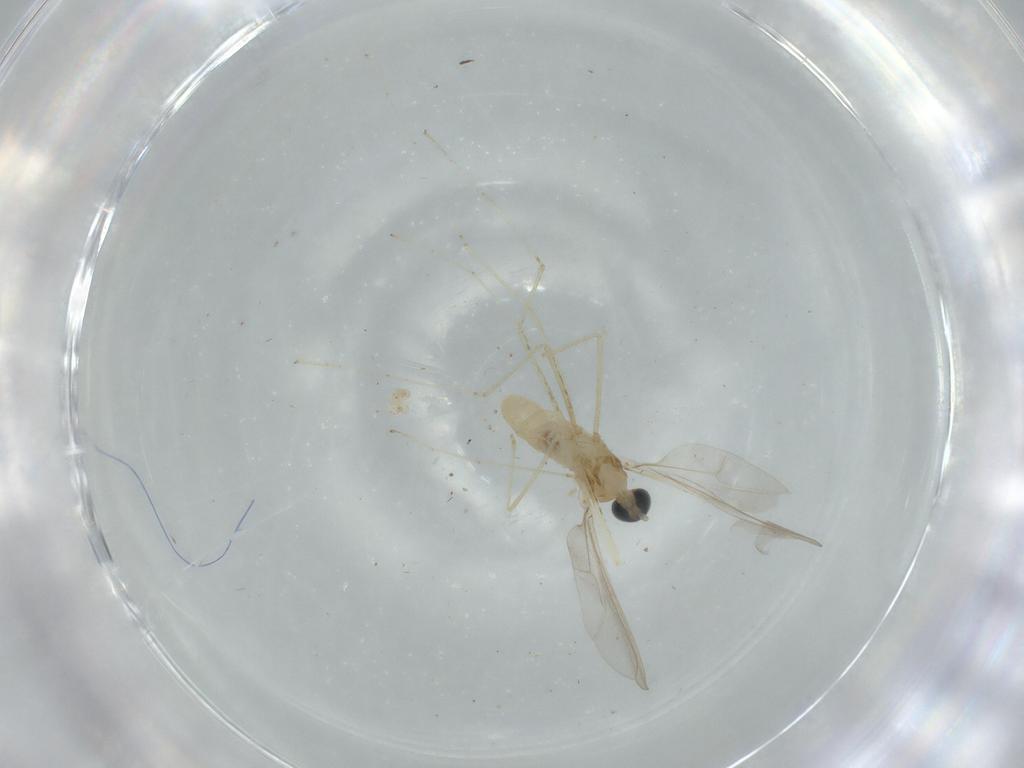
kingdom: Animalia
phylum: Arthropoda
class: Insecta
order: Diptera
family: Cecidomyiidae
